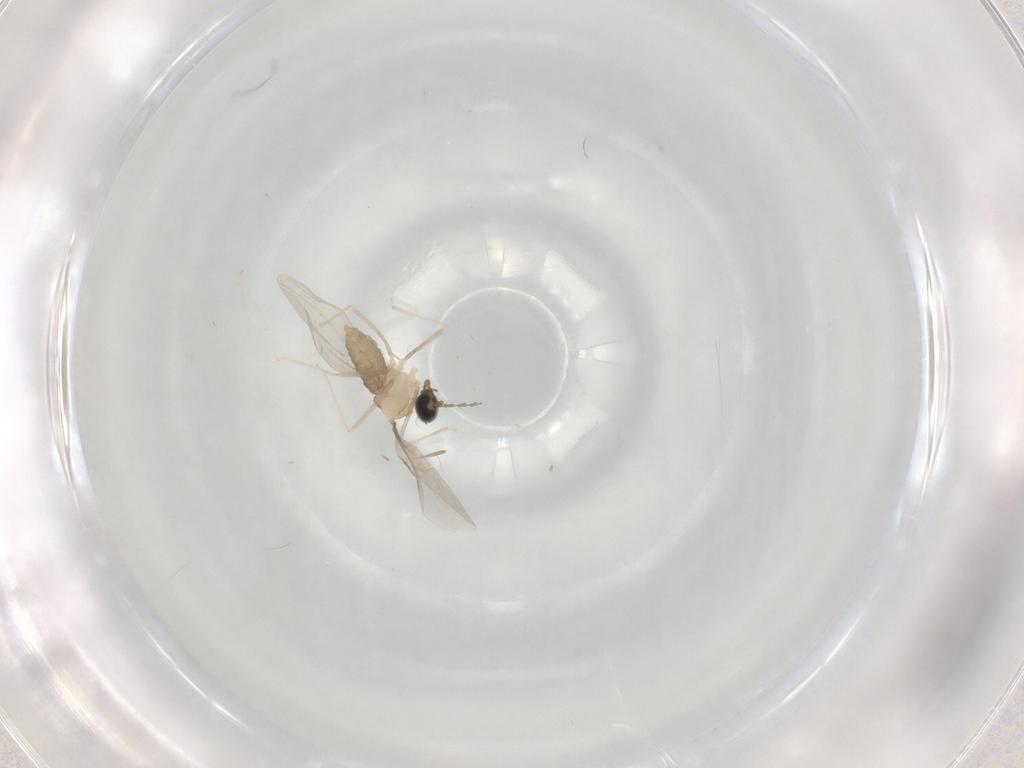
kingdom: Animalia
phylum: Arthropoda
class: Insecta
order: Diptera
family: Cecidomyiidae
